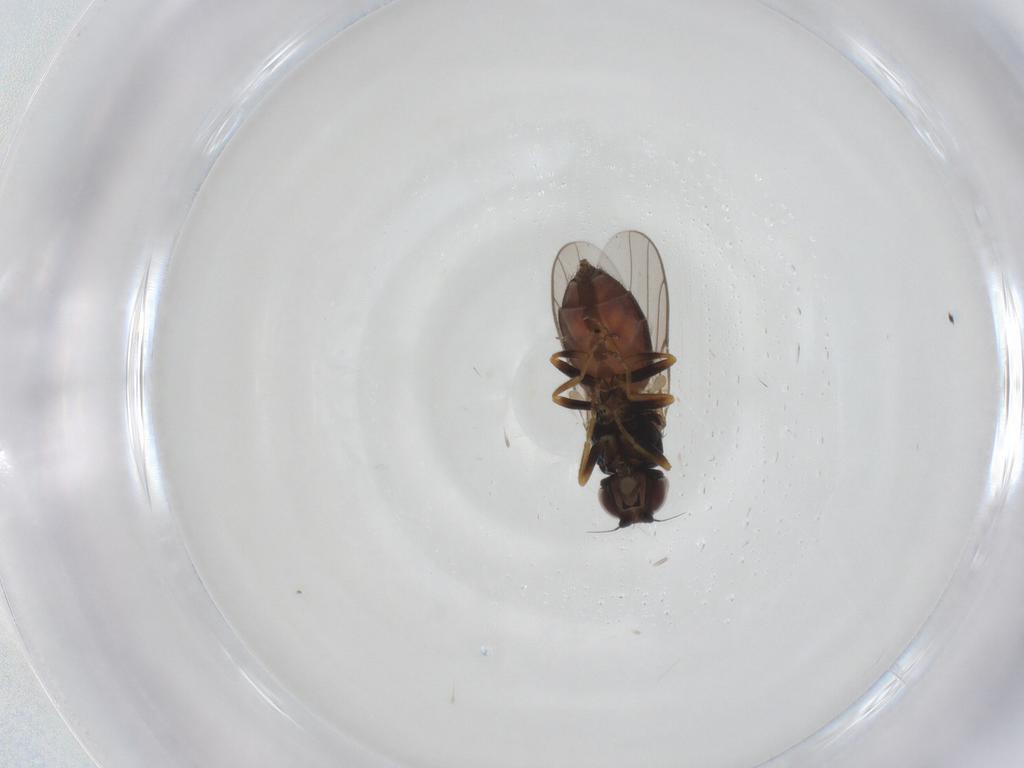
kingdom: Animalia
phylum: Arthropoda
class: Insecta
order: Diptera
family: Chloropidae
